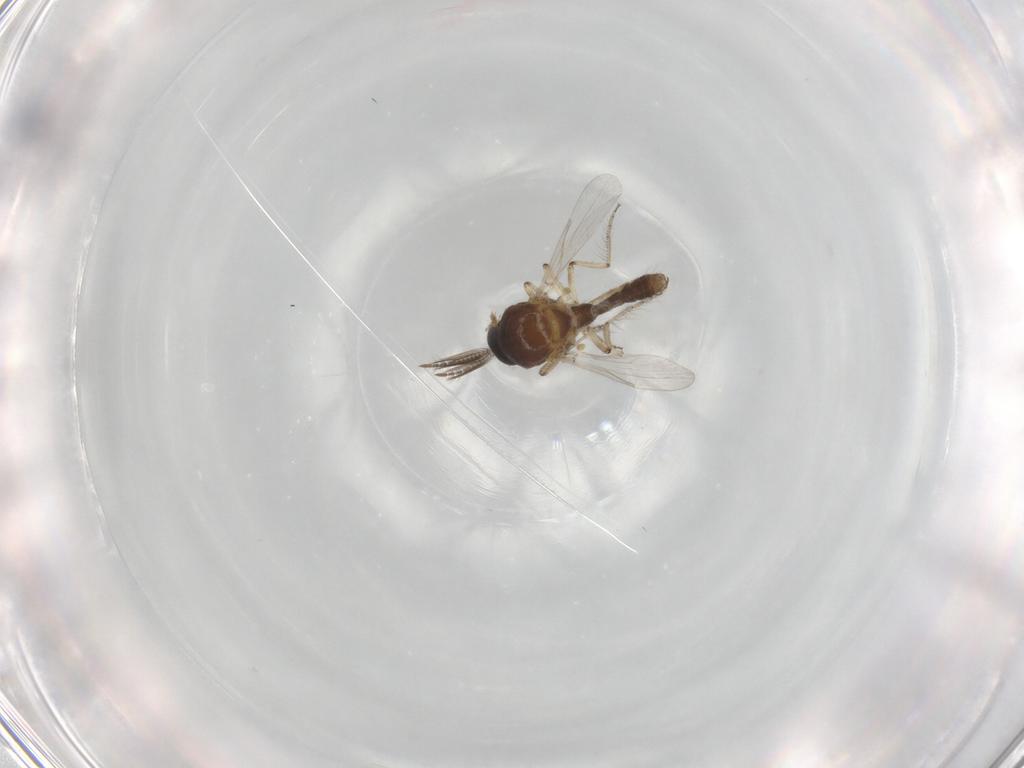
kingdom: Animalia
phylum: Arthropoda
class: Insecta
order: Diptera
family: Ceratopogonidae
